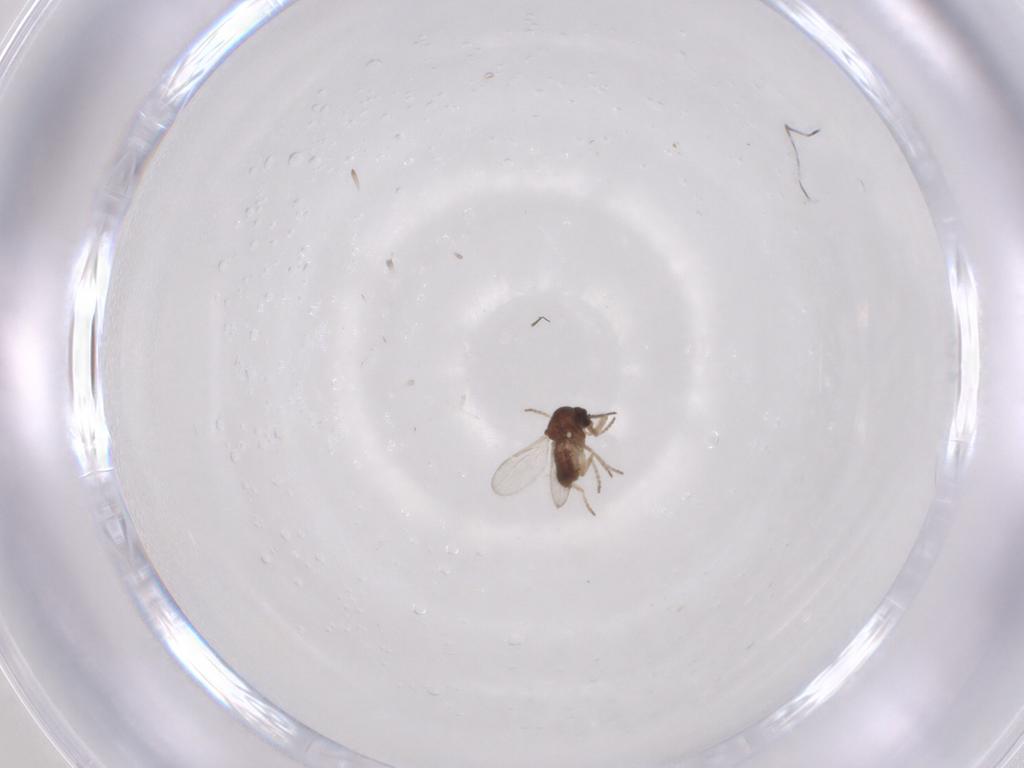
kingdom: Animalia
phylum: Arthropoda
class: Insecta
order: Diptera
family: Ceratopogonidae
